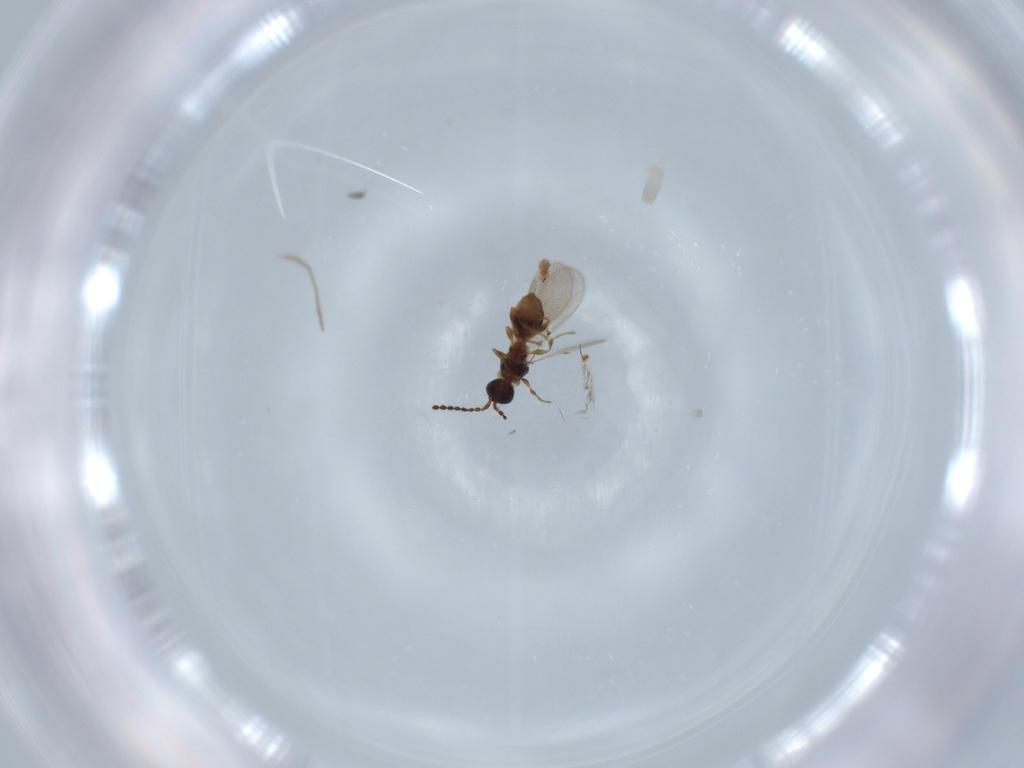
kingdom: Animalia
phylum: Arthropoda
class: Insecta
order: Hymenoptera
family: Diapriidae
